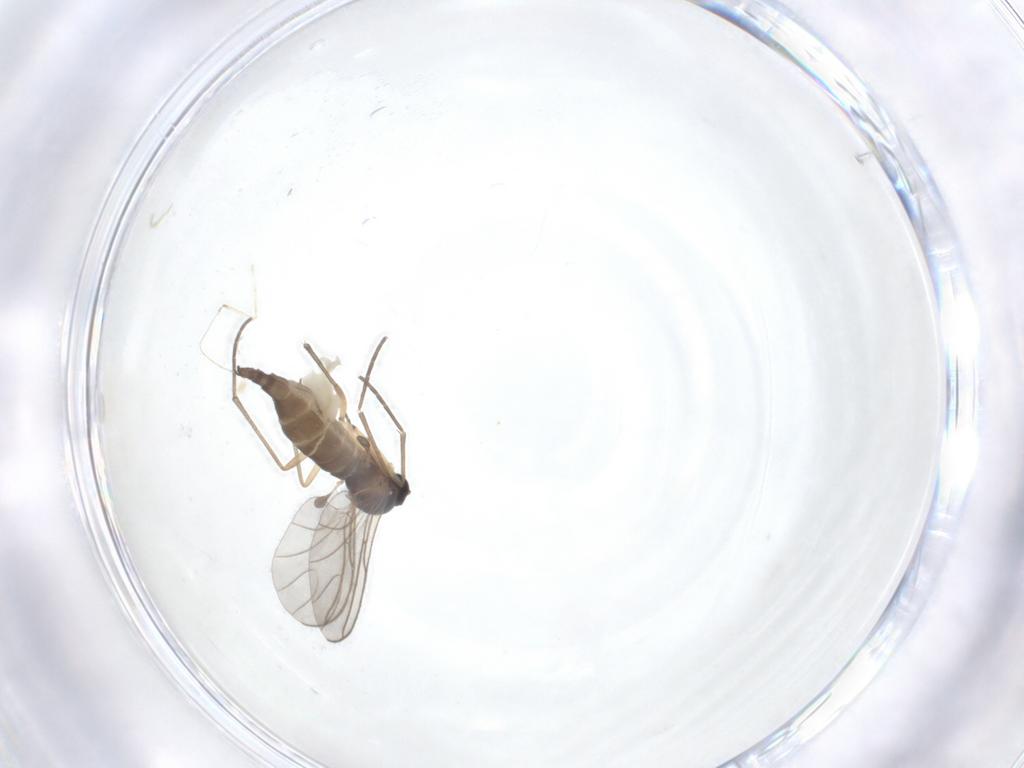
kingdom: Animalia
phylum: Arthropoda
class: Insecta
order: Diptera
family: Sciaridae
